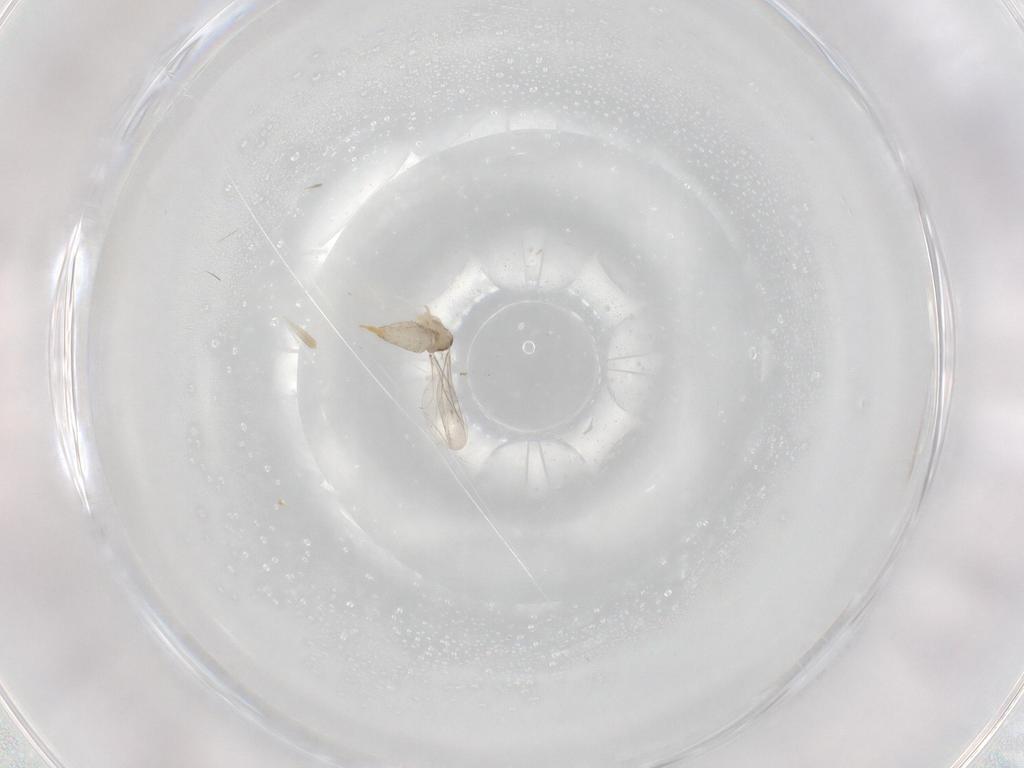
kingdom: Animalia
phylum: Arthropoda
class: Insecta
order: Diptera
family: Cecidomyiidae
